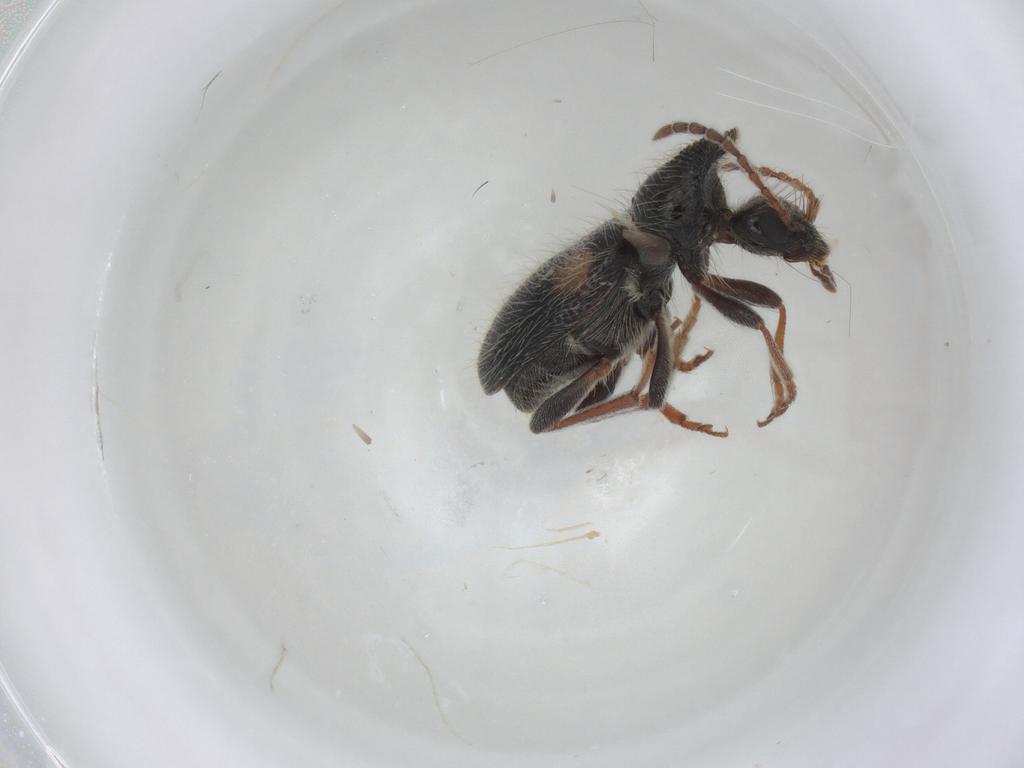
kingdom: Animalia
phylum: Arthropoda
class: Insecta
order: Coleoptera
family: Anthicidae
